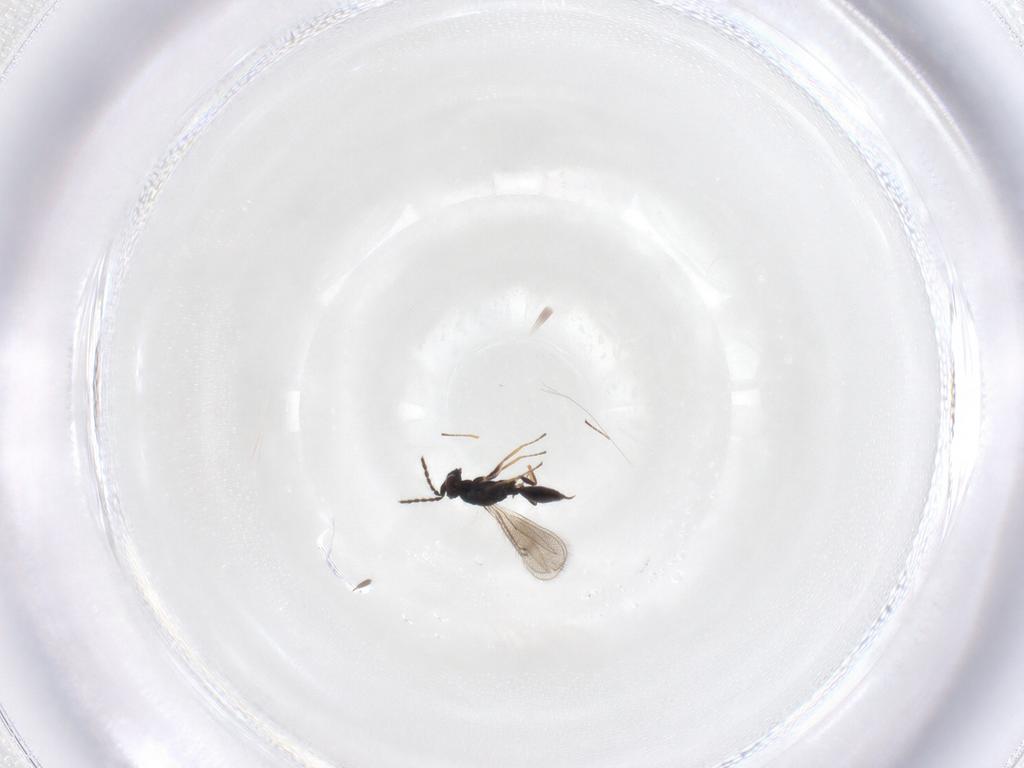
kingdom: Animalia
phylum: Arthropoda
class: Insecta
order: Hymenoptera
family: Eulophidae
